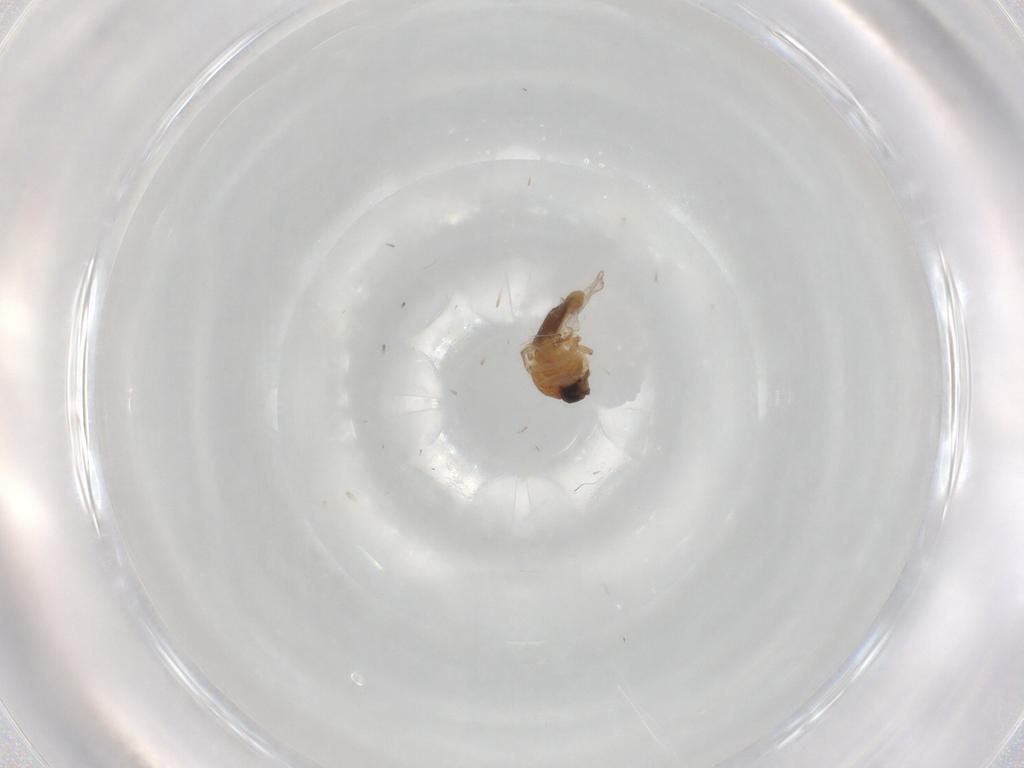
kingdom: Animalia
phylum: Arthropoda
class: Insecta
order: Diptera
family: Ceratopogonidae
